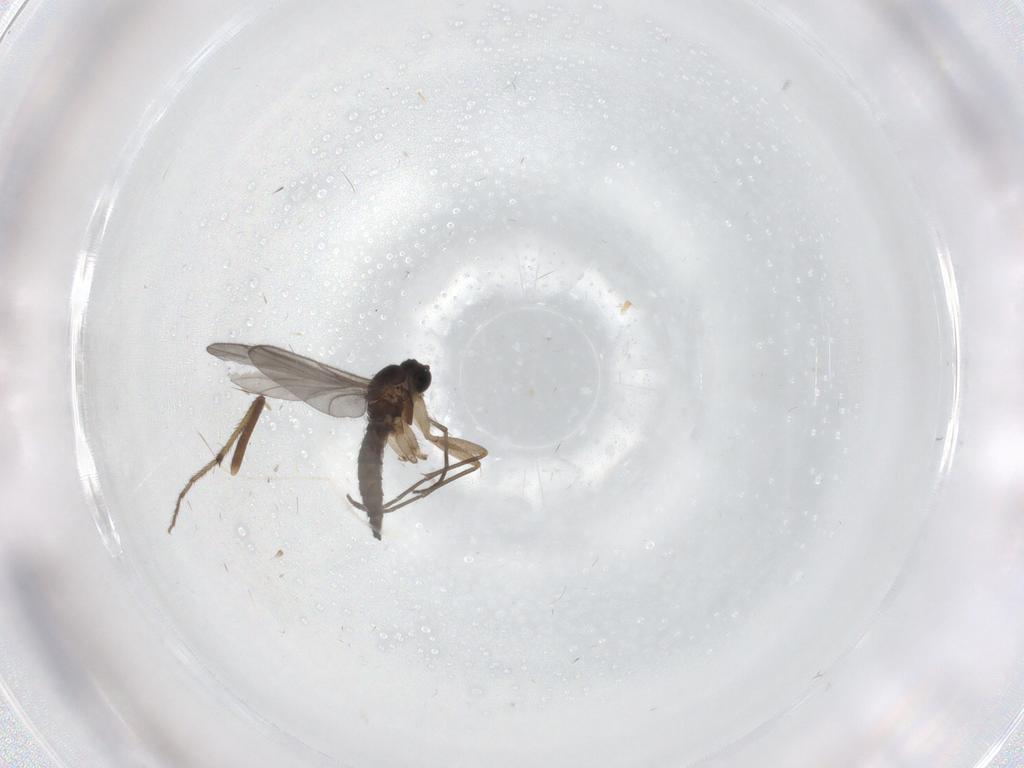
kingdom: Animalia
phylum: Arthropoda
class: Insecta
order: Diptera
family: Sciaridae
